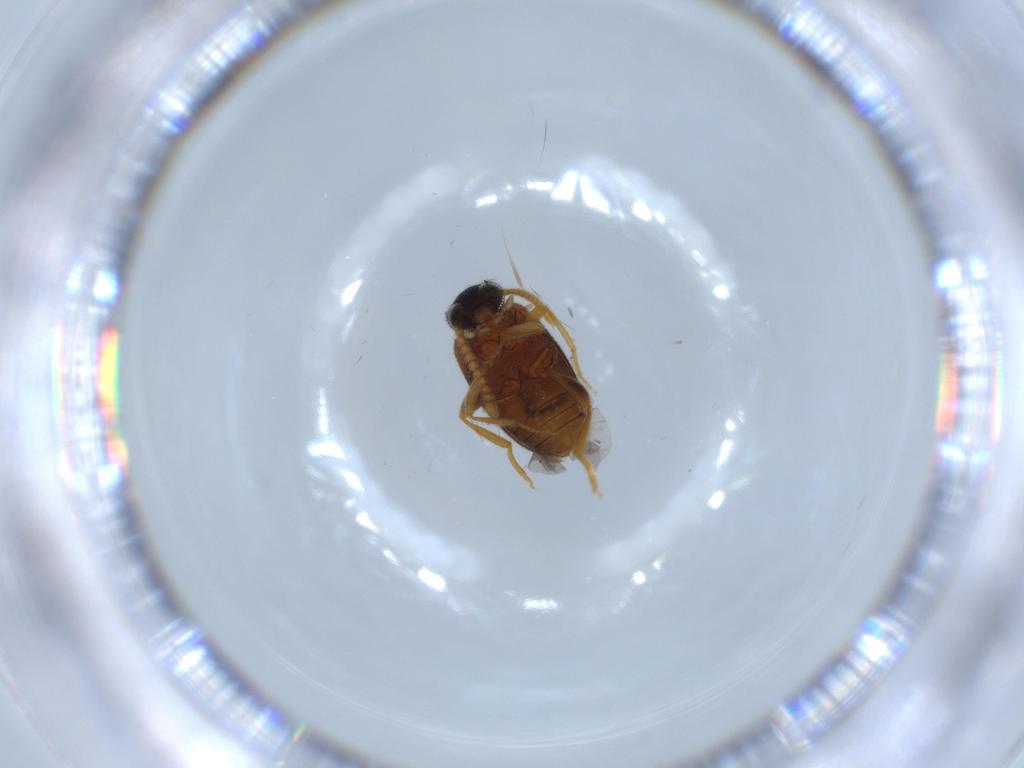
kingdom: Animalia
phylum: Arthropoda
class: Insecta
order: Coleoptera
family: Aderidae
